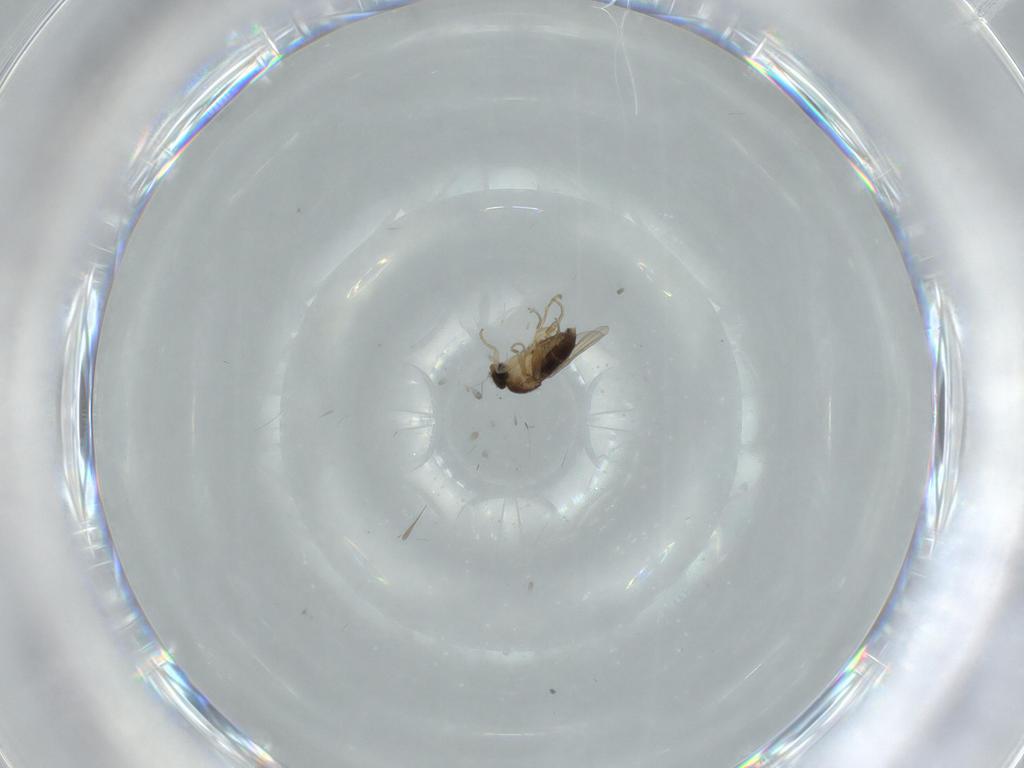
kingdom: Animalia
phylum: Arthropoda
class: Insecta
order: Diptera
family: Phoridae
